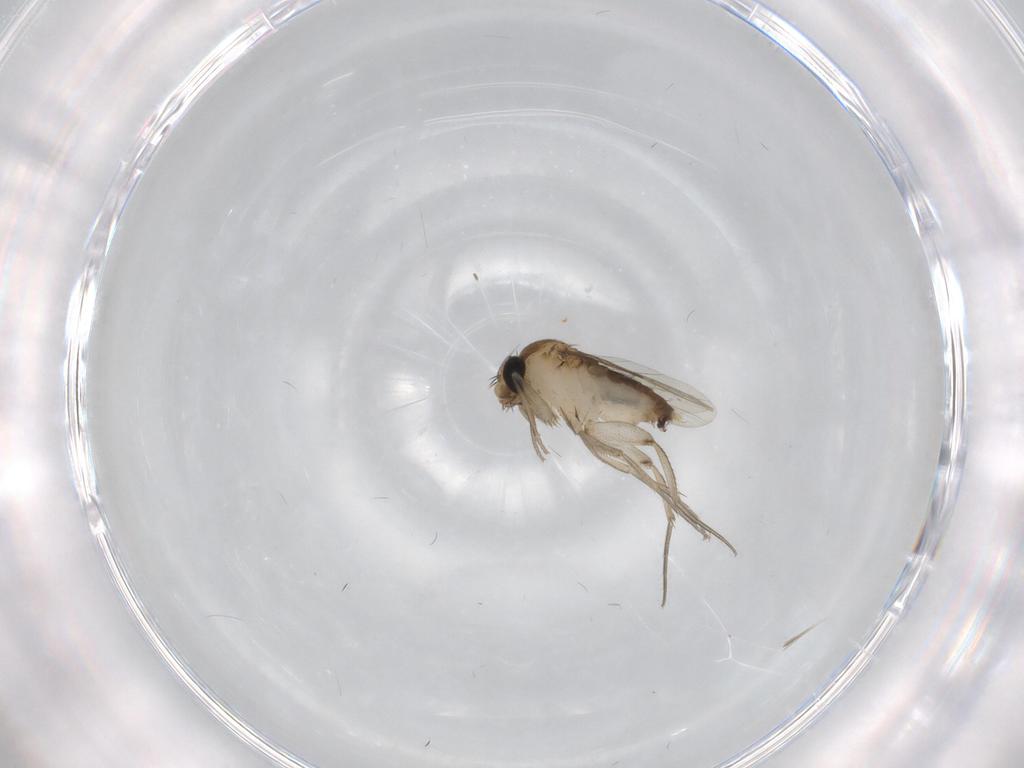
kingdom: Animalia
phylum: Arthropoda
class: Insecta
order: Diptera
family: Phoridae
